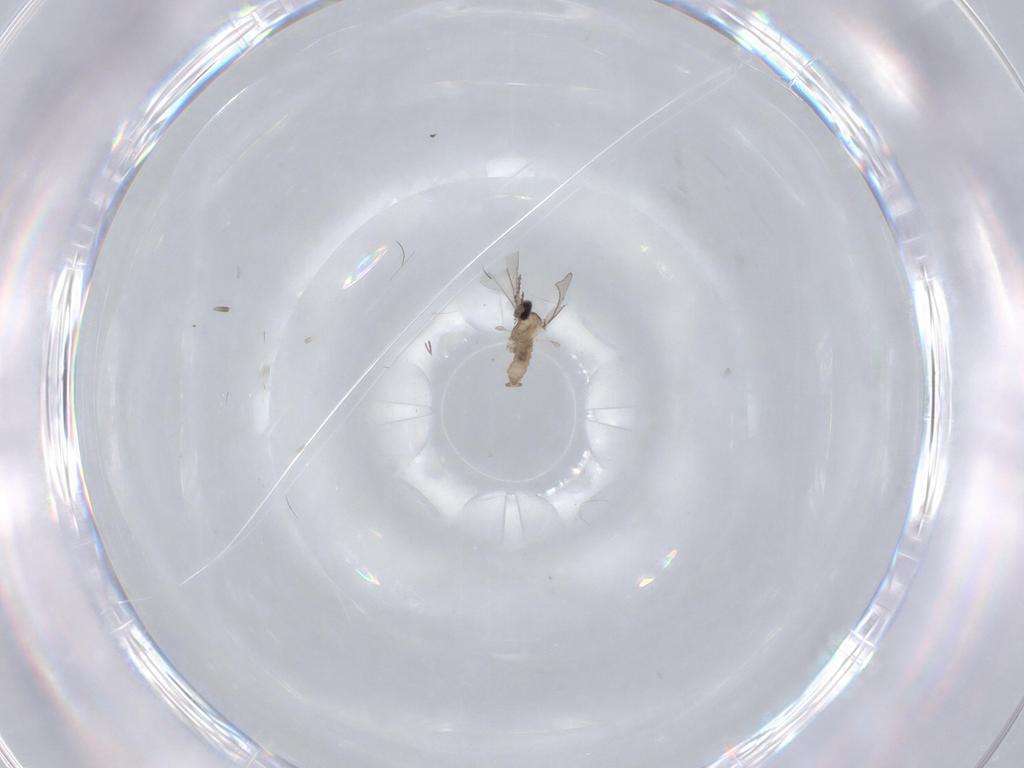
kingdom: Animalia
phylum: Arthropoda
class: Insecta
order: Diptera
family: Cecidomyiidae
